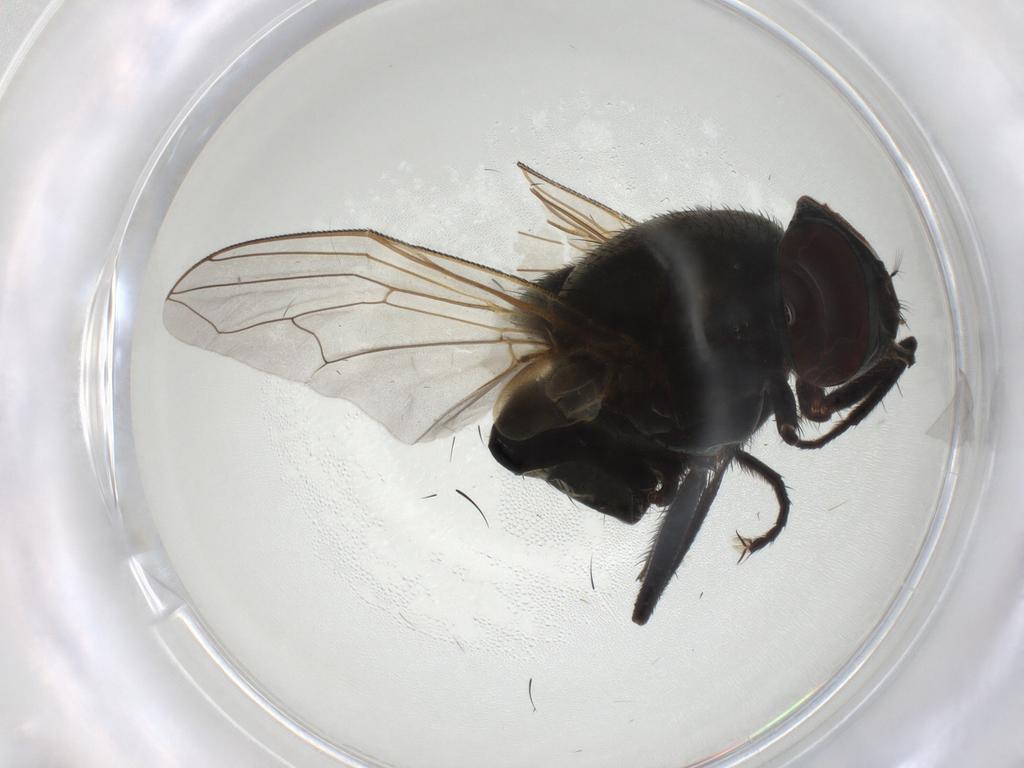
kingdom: Animalia
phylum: Arthropoda
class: Insecta
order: Diptera
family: Muscidae
